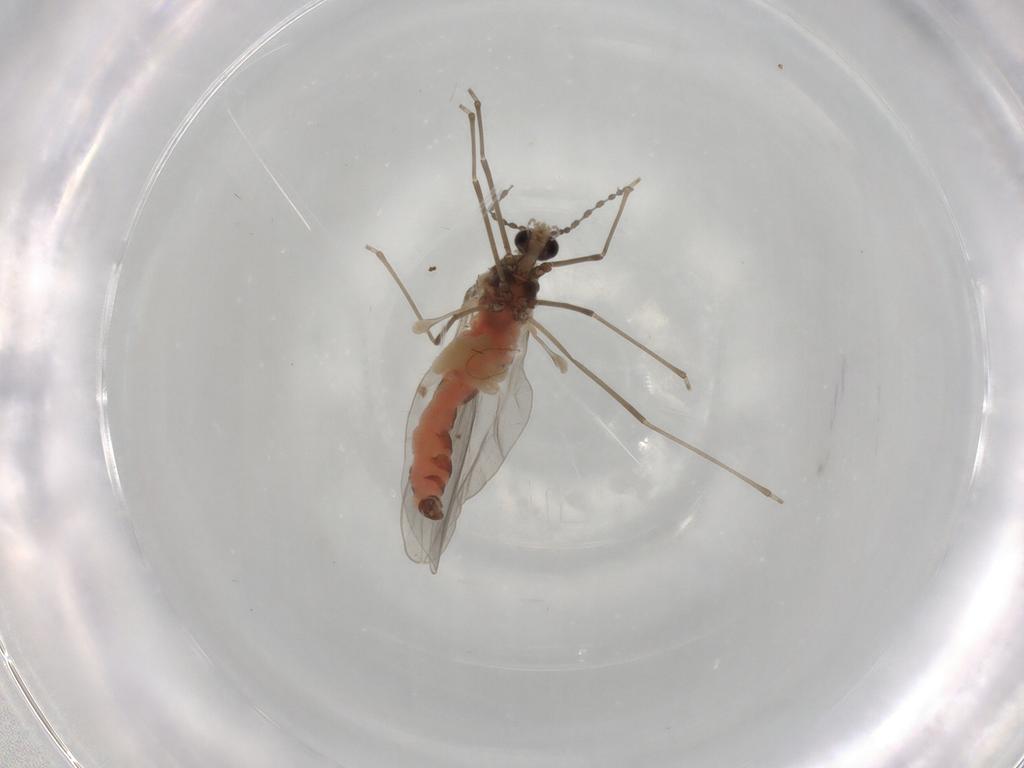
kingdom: Animalia
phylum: Arthropoda
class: Insecta
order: Diptera
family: Cecidomyiidae
